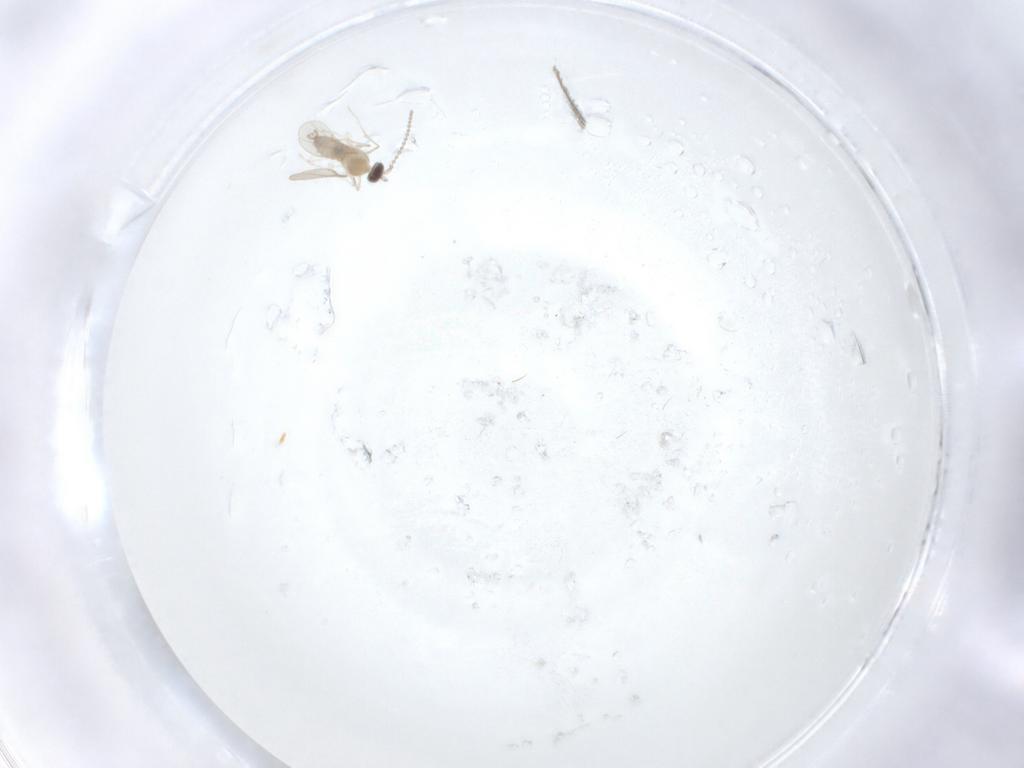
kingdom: Animalia
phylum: Arthropoda
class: Insecta
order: Diptera
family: Chironomidae
